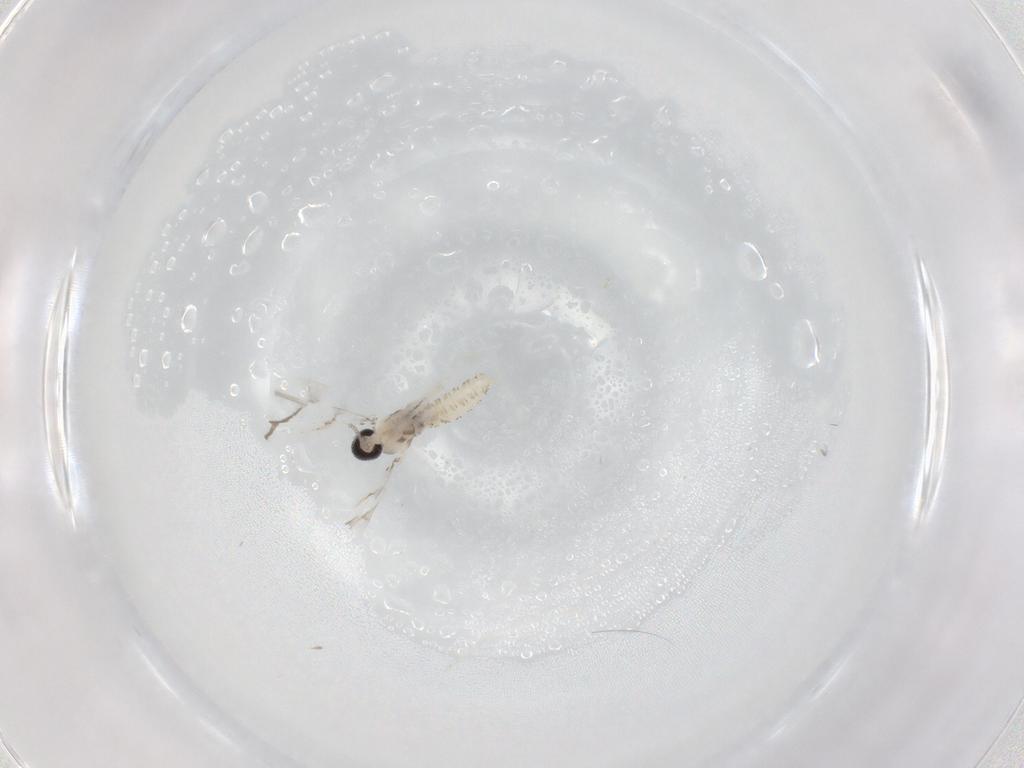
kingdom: Animalia
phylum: Arthropoda
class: Insecta
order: Diptera
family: Cecidomyiidae
